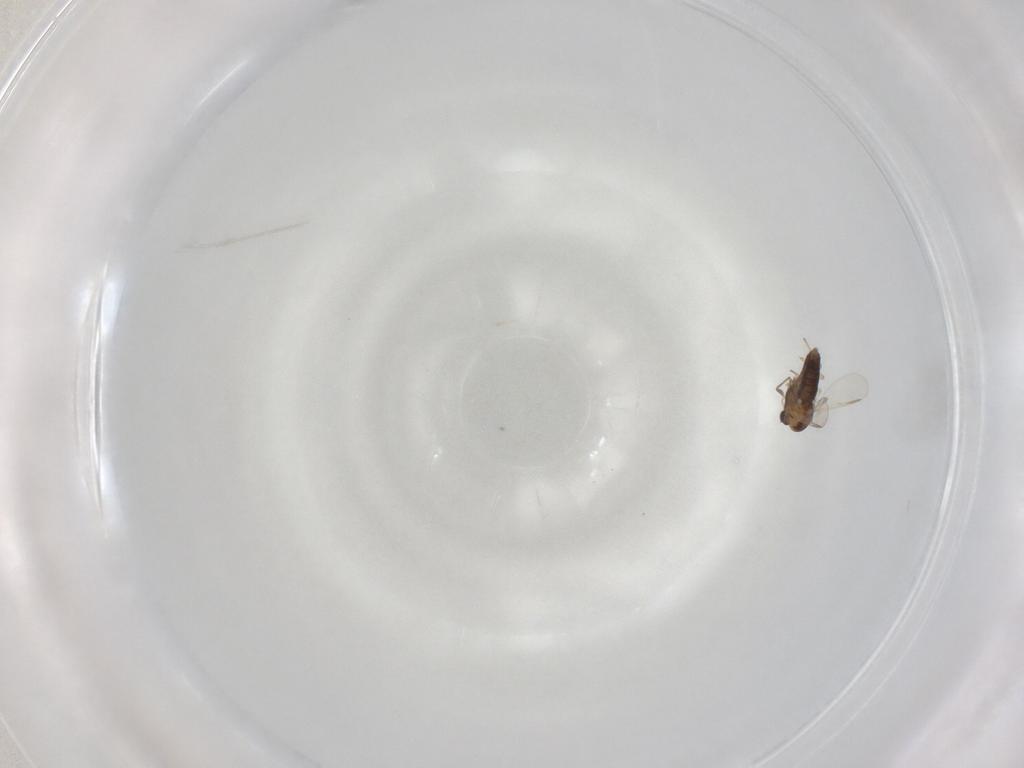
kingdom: Animalia
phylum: Arthropoda
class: Insecta
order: Diptera
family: Chironomidae
